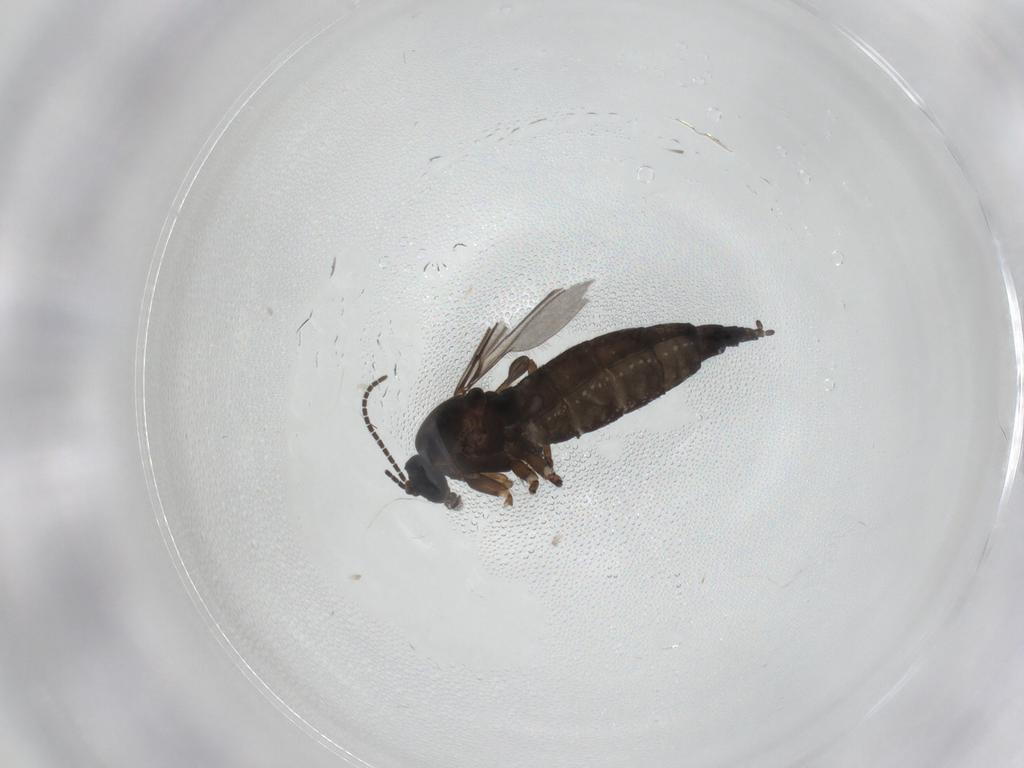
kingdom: Animalia
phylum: Arthropoda
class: Insecta
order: Diptera
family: Sciaridae
